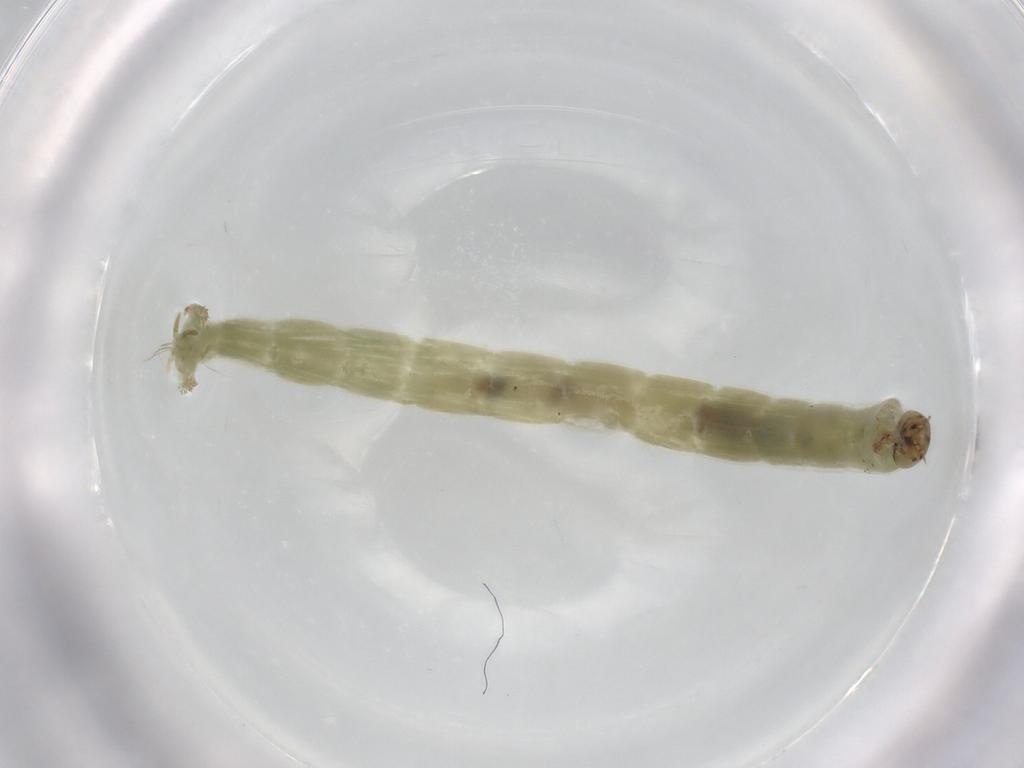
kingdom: Animalia
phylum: Arthropoda
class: Insecta
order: Diptera
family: Chironomidae
